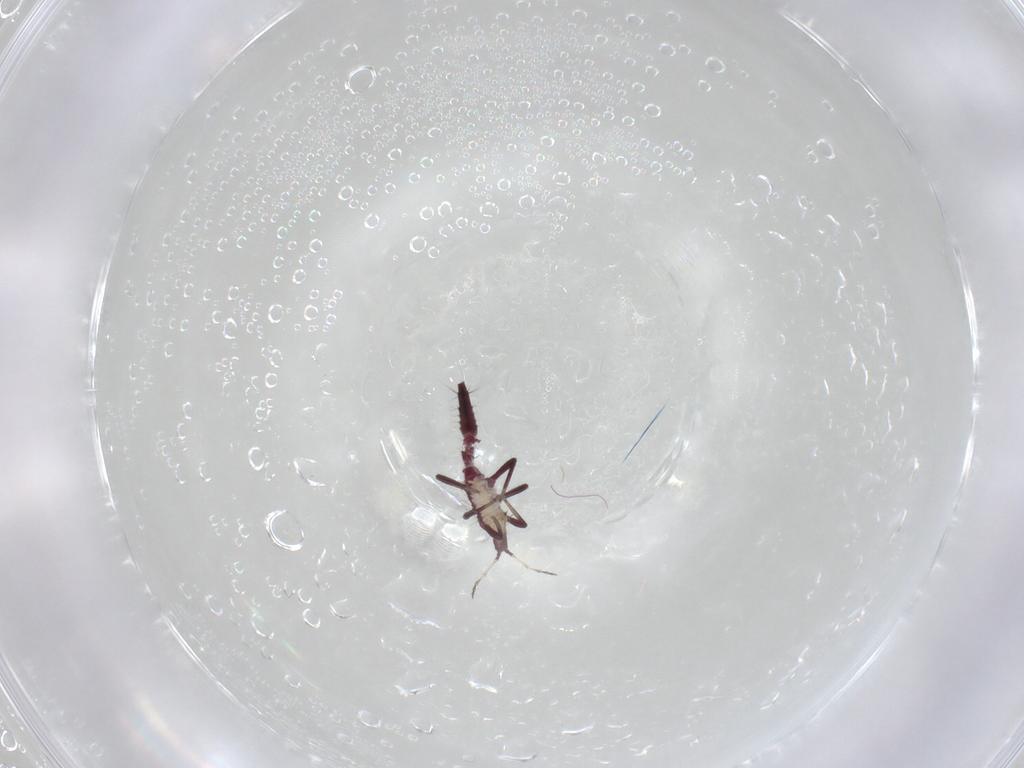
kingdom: Animalia
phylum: Arthropoda
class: Insecta
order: Thysanoptera
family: Phlaeothripidae
